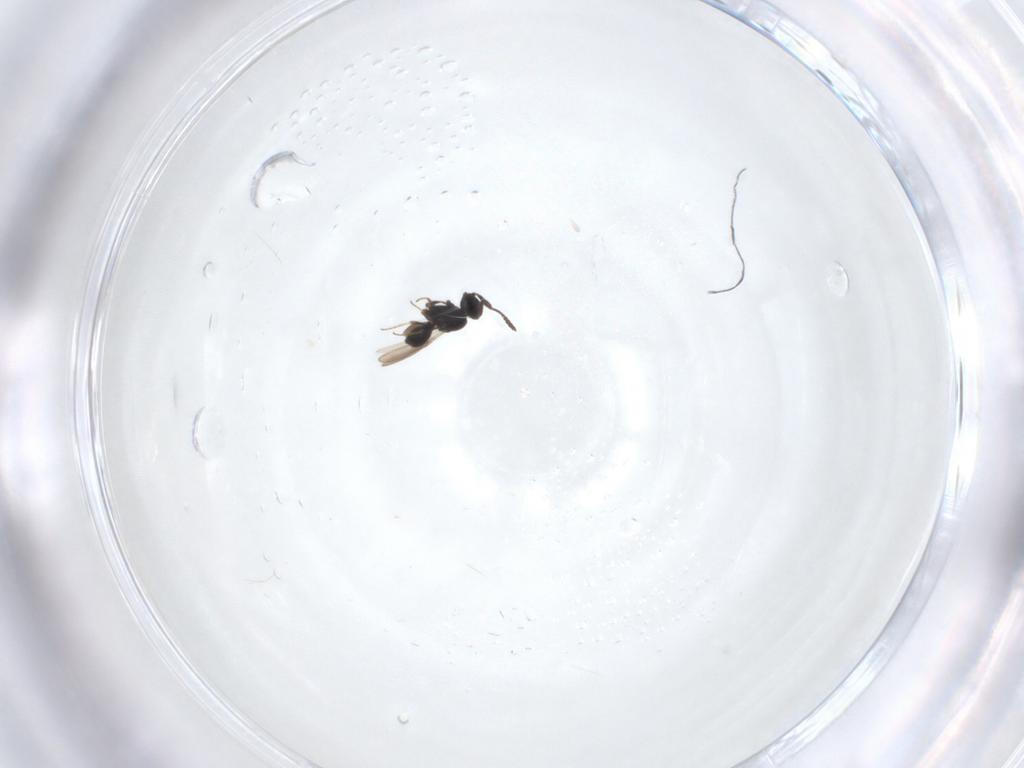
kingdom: Animalia
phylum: Arthropoda
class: Insecta
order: Hymenoptera
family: Scelionidae
